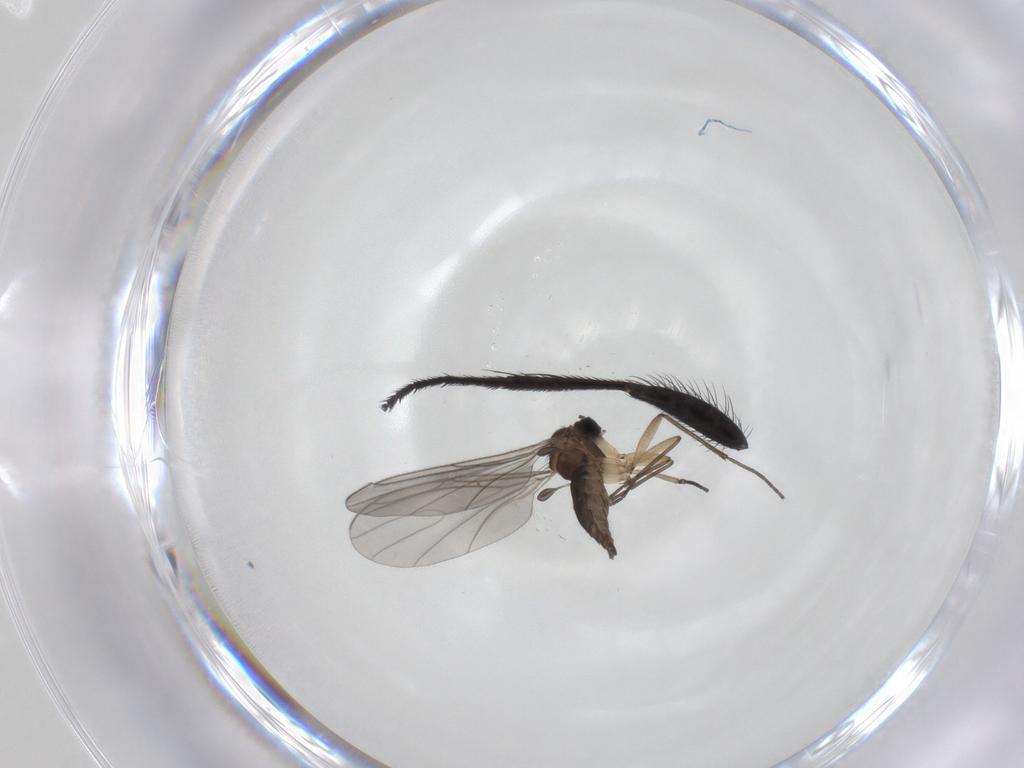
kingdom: Animalia
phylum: Arthropoda
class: Insecta
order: Diptera
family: Sciaridae
